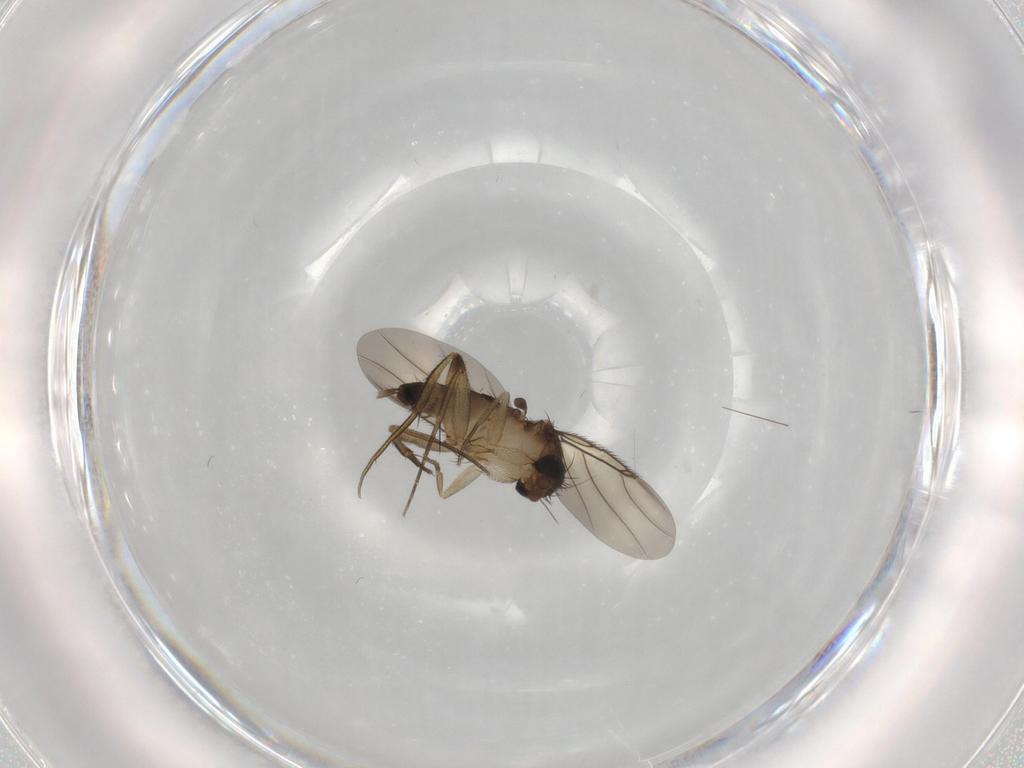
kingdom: Animalia
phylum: Arthropoda
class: Insecta
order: Diptera
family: Phoridae
